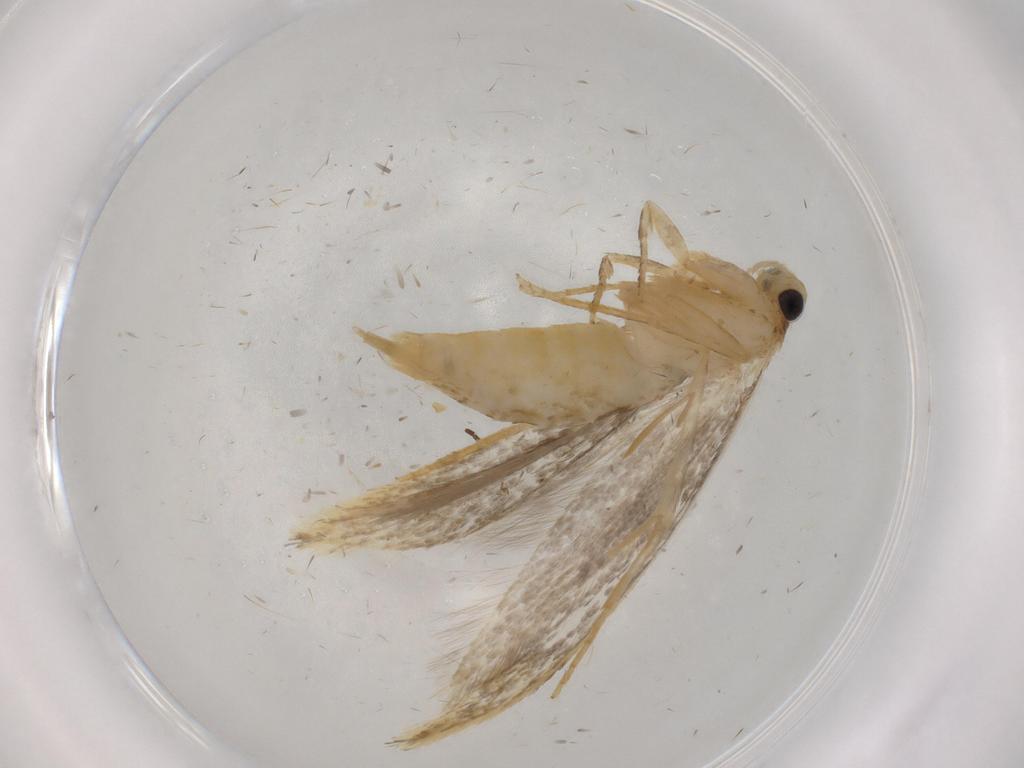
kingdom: Animalia
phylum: Arthropoda
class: Insecta
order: Lepidoptera
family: Tineidae
